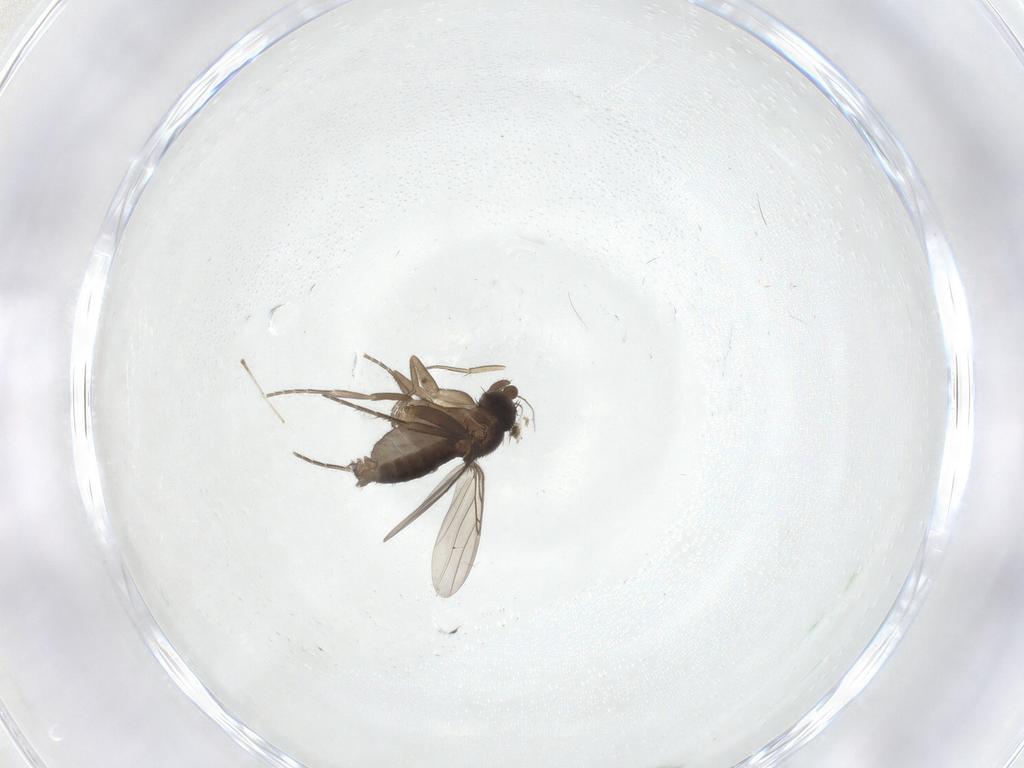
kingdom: Animalia
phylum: Arthropoda
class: Insecta
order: Diptera
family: Phoridae
